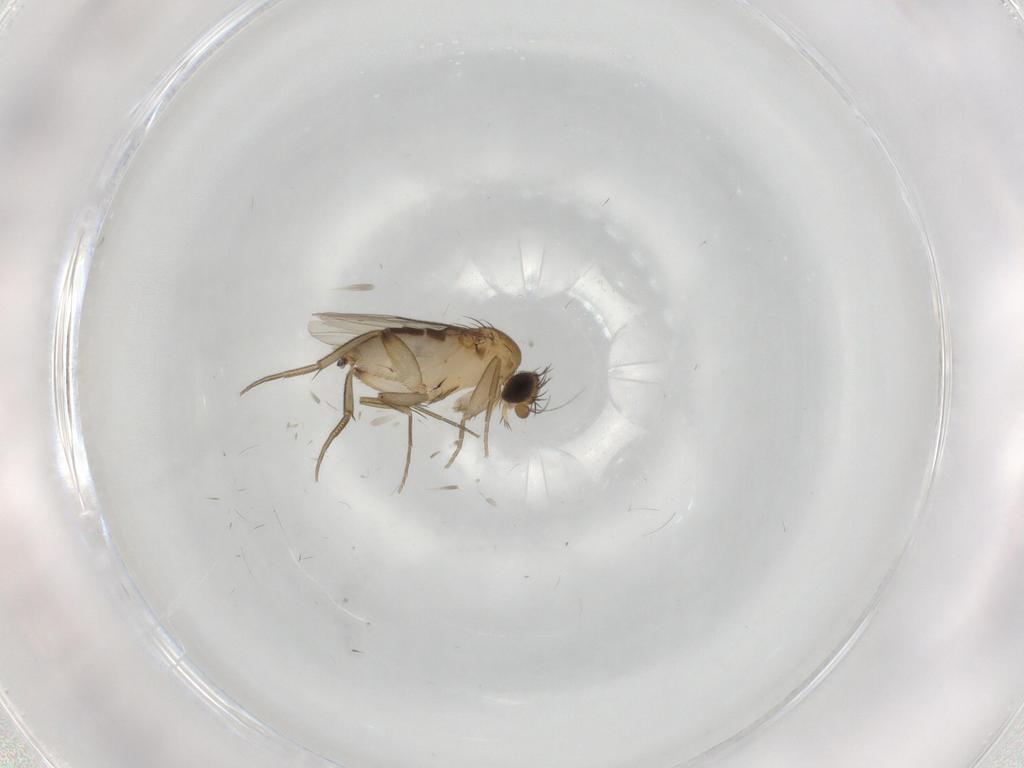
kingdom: Animalia
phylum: Arthropoda
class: Insecta
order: Diptera
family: Phoridae
